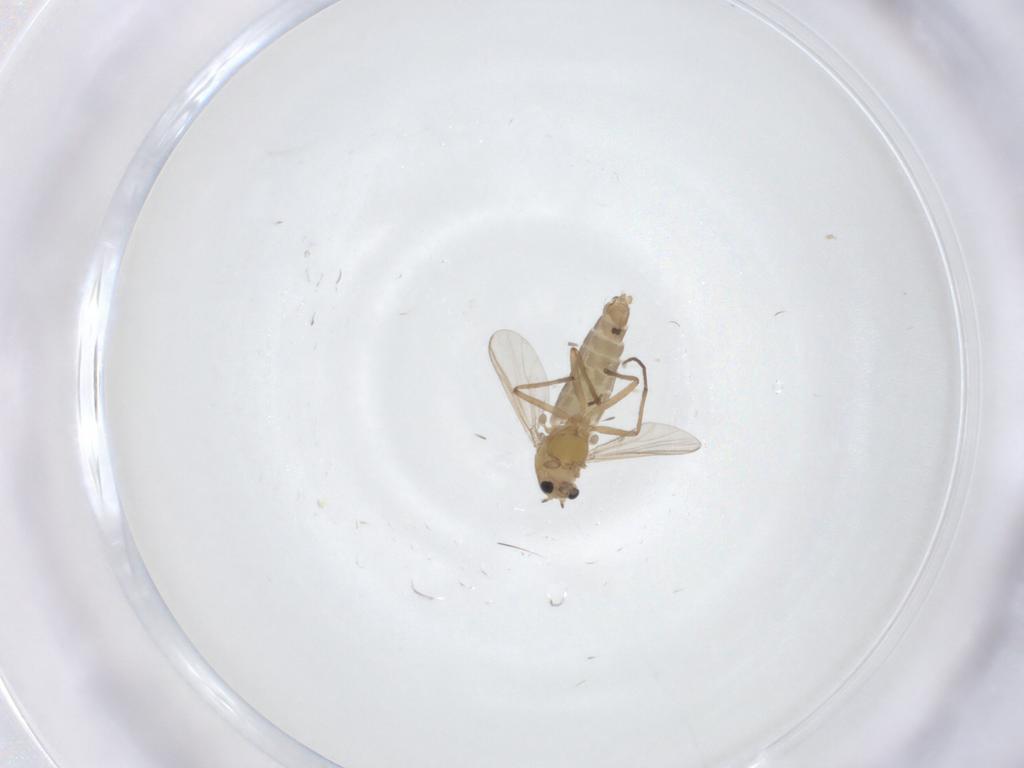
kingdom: Animalia
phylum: Arthropoda
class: Insecta
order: Diptera
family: Chironomidae
